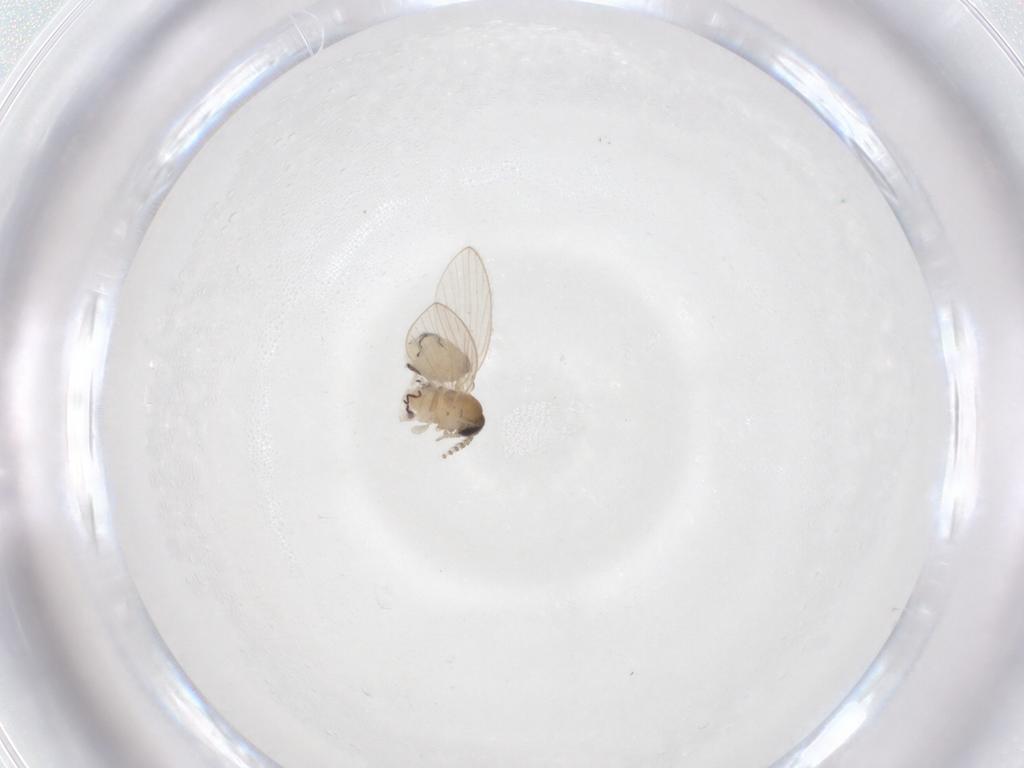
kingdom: Animalia
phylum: Arthropoda
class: Insecta
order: Diptera
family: Psychodidae
